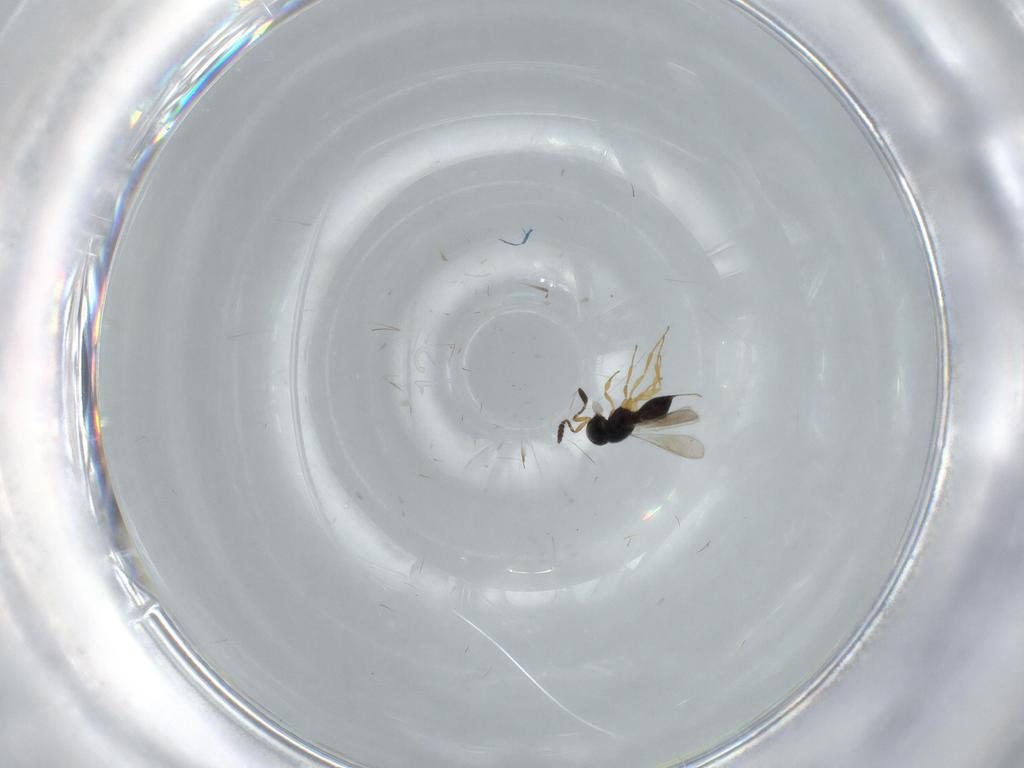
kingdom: Animalia
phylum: Arthropoda
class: Insecta
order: Hymenoptera
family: Scelionidae
